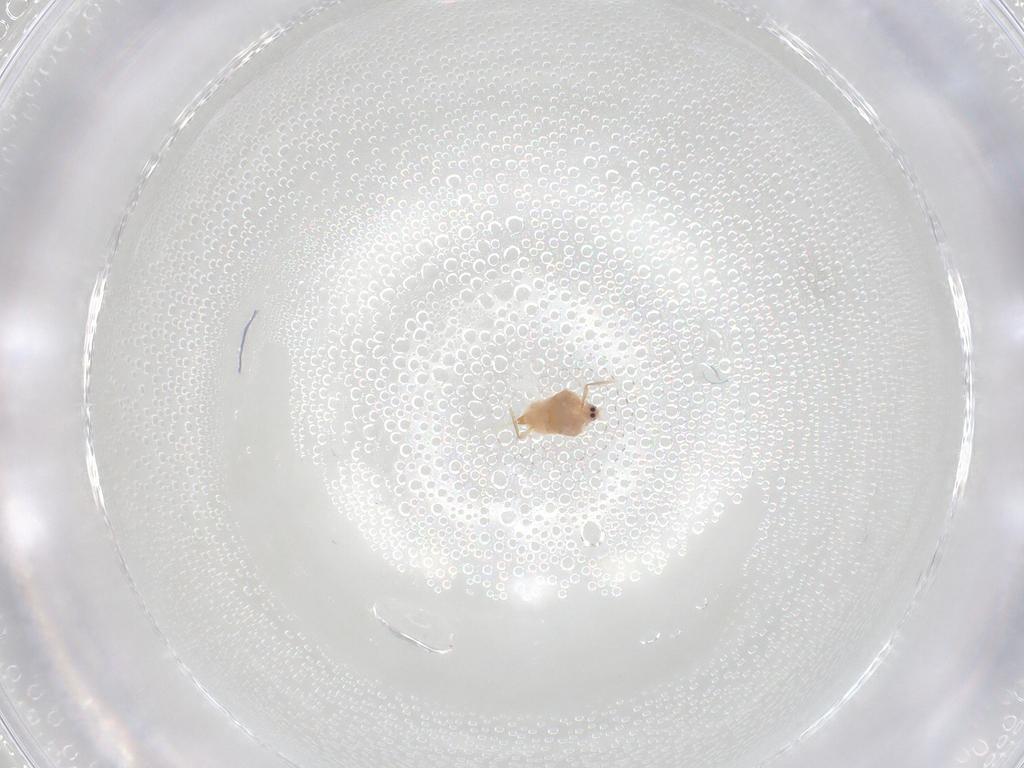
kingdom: Animalia
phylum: Arthropoda
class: Insecta
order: Hemiptera
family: Diaspididae
